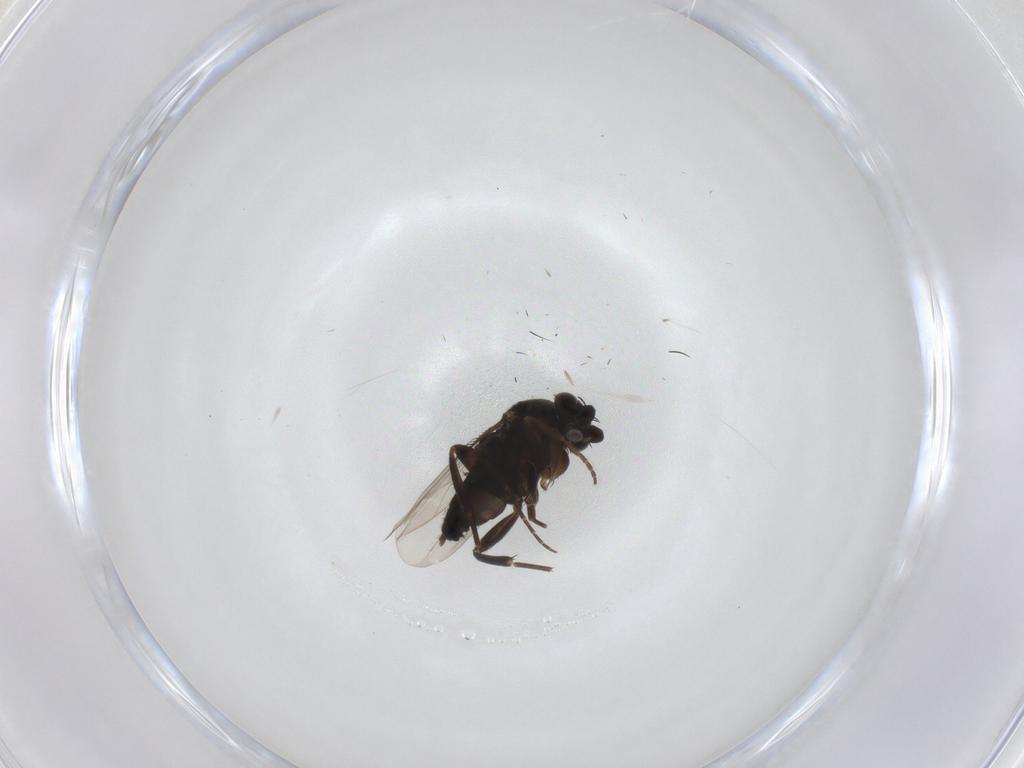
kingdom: Animalia
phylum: Arthropoda
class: Insecta
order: Diptera
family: Phoridae
